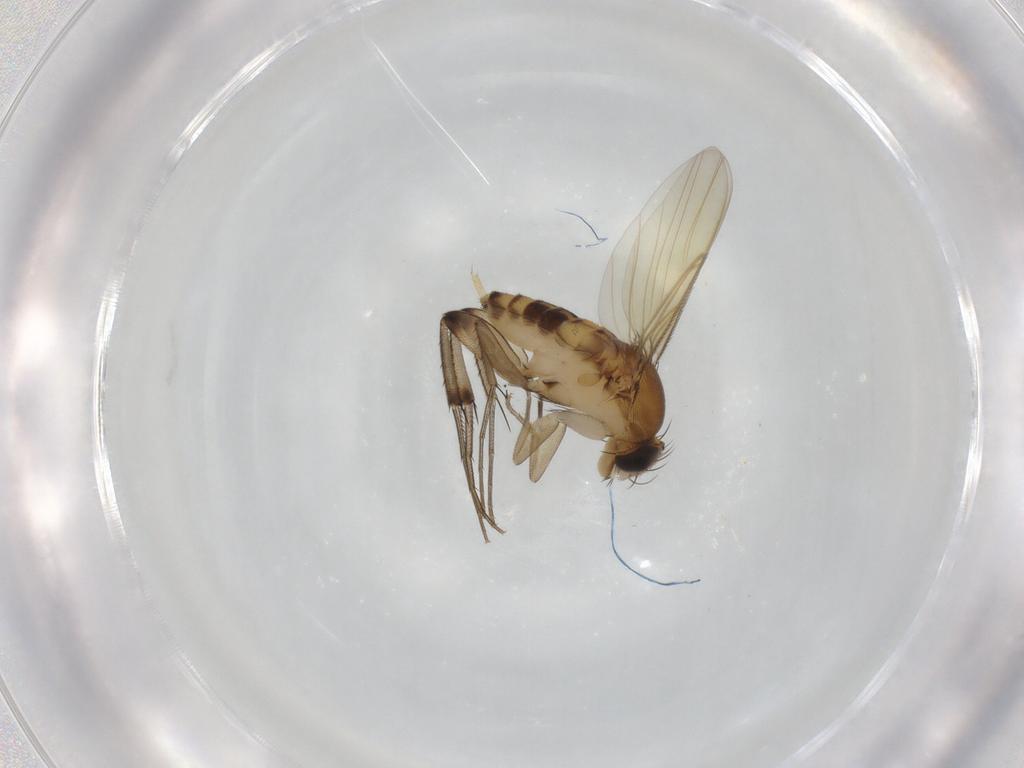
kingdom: Animalia
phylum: Arthropoda
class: Insecta
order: Diptera
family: Phoridae
